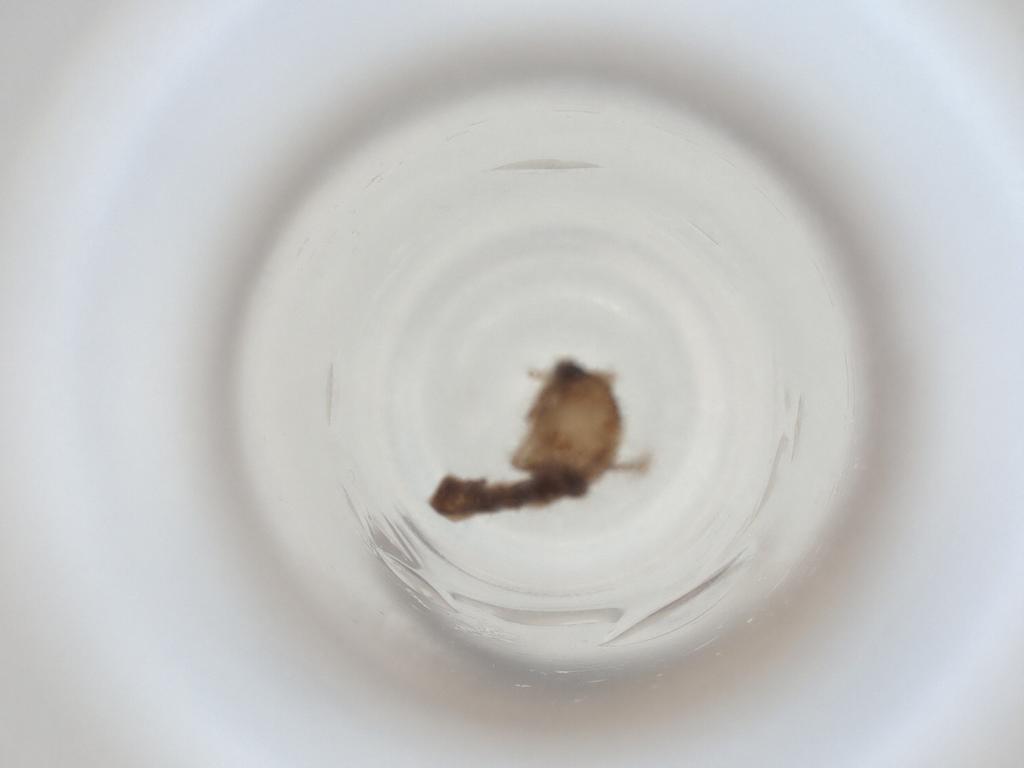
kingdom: Animalia
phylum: Arthropoda
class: Insecta
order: Diptera
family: Cecidomyiidae
